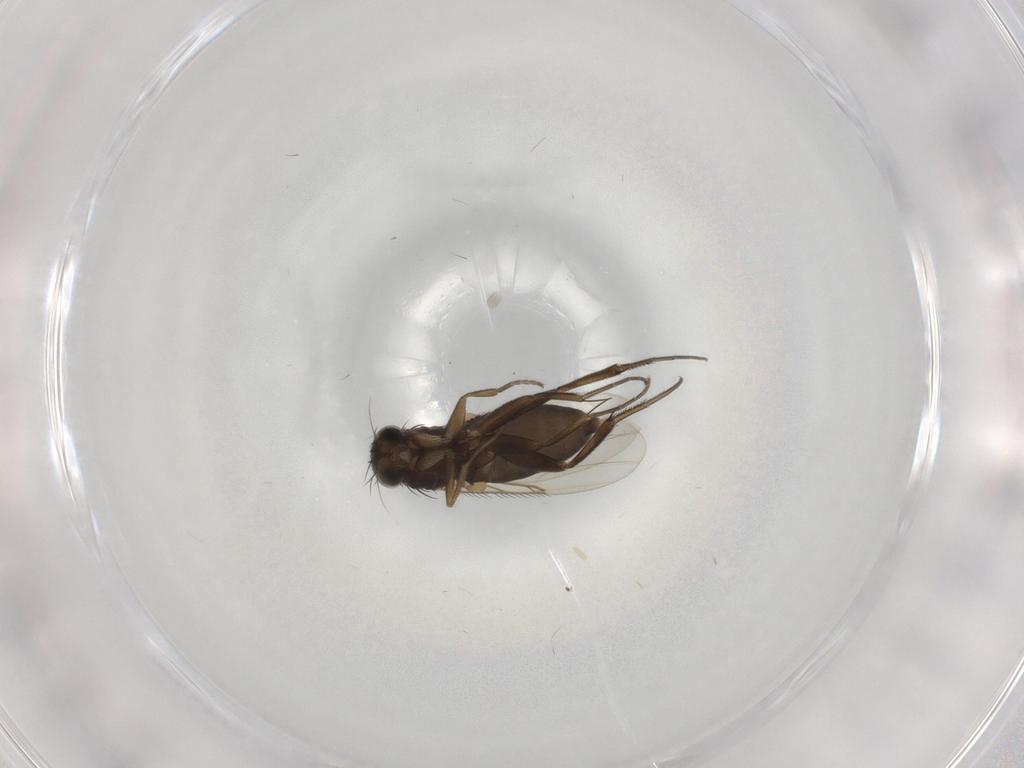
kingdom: Animalia
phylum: Arthropoda
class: Insecta
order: Diptera
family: Phoridae
